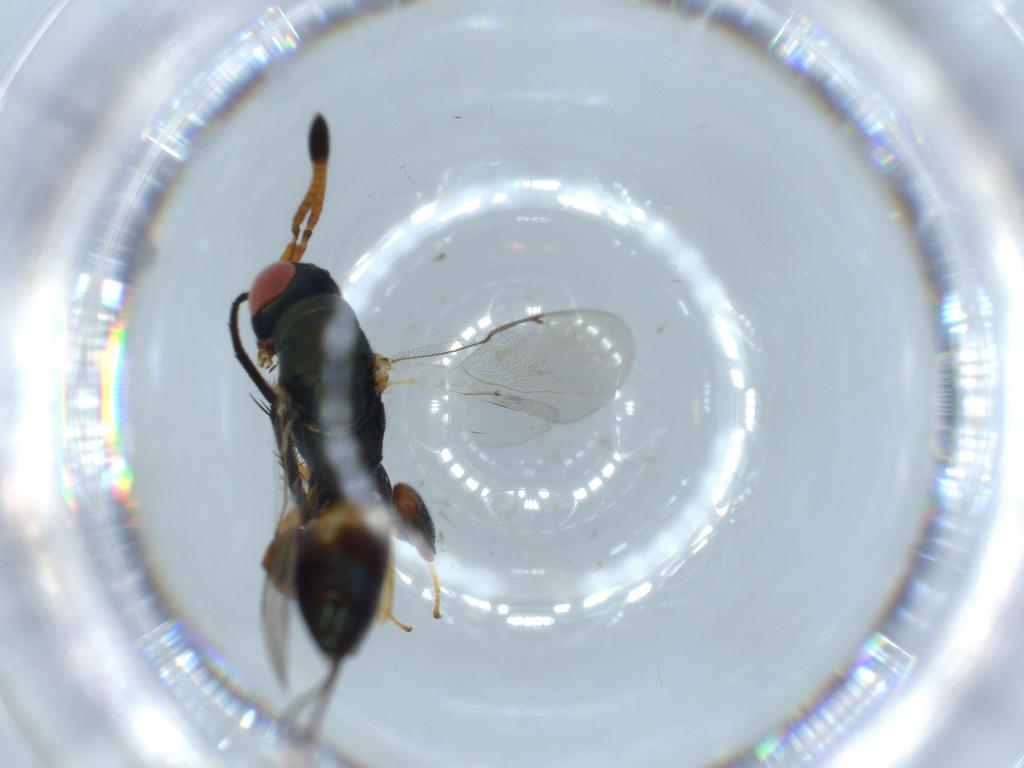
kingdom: Animalia
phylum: Arthropoda
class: Insecta
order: Hymenoptera
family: Torymidae
